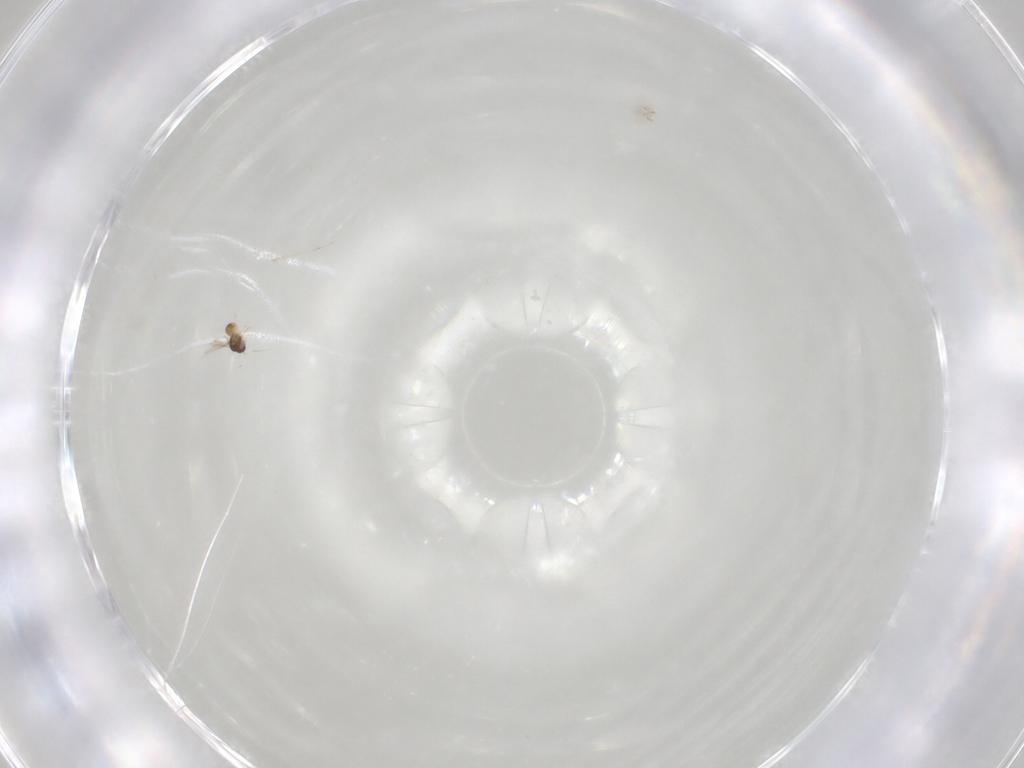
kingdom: Animalia
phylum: Arthropoda
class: Insecta
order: Hymenoptera
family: Mymaridae
